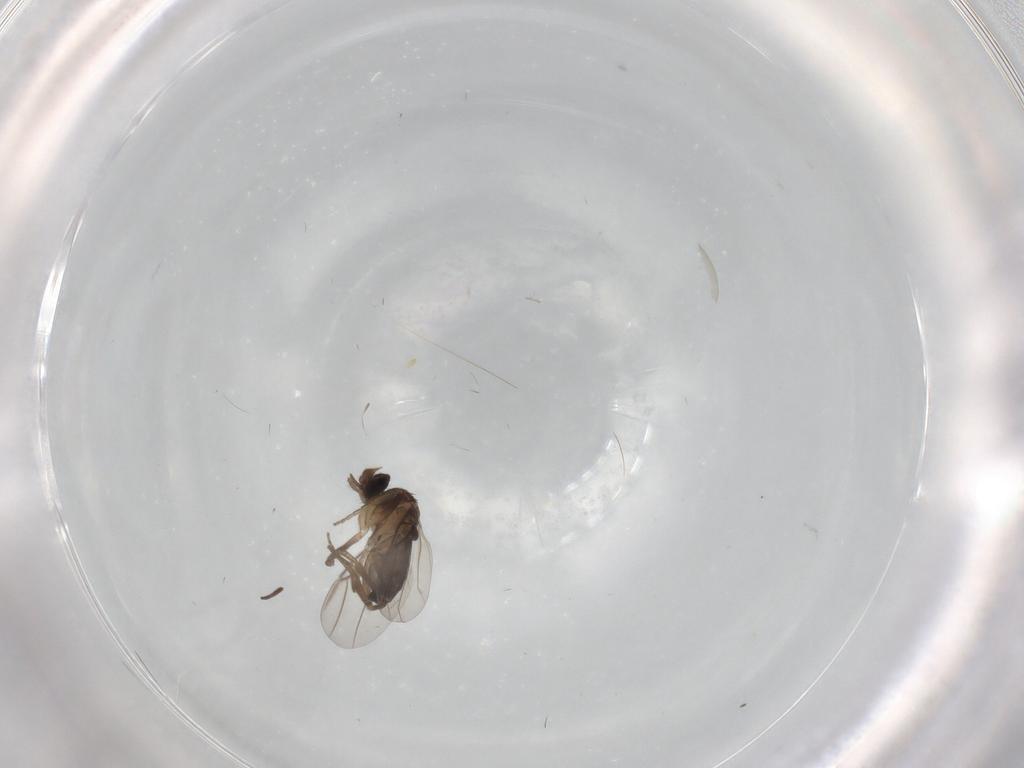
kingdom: Animalia
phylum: Arthropoda
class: Insecta
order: Diptera
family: Phoridae
